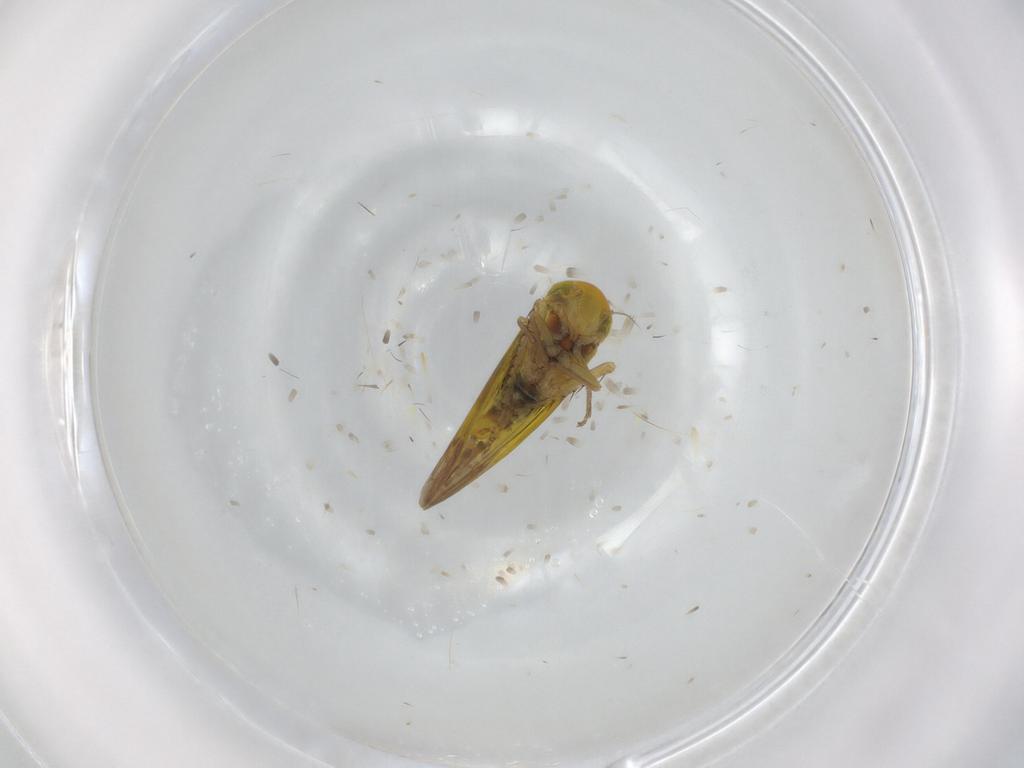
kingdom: Animalia
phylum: Arthropoda
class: Insecta
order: Hemiptera
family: Cicadellidae
